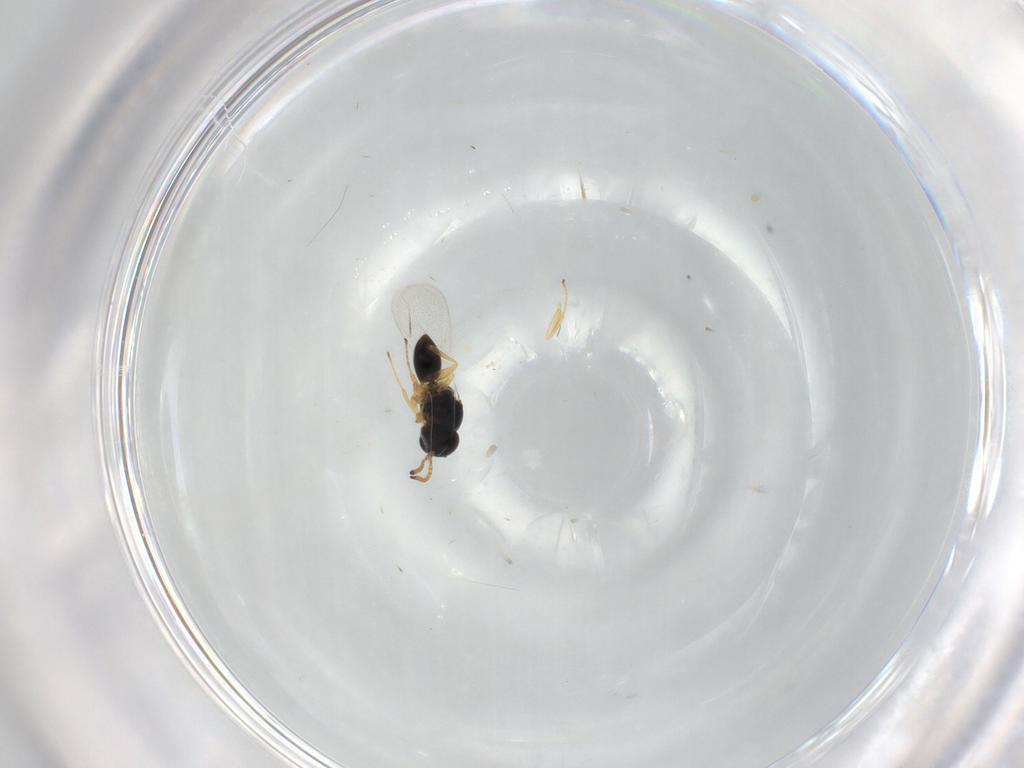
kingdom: Animalia
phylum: Arthropoda
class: Insecta
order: Hymenoptera
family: Figitidae
